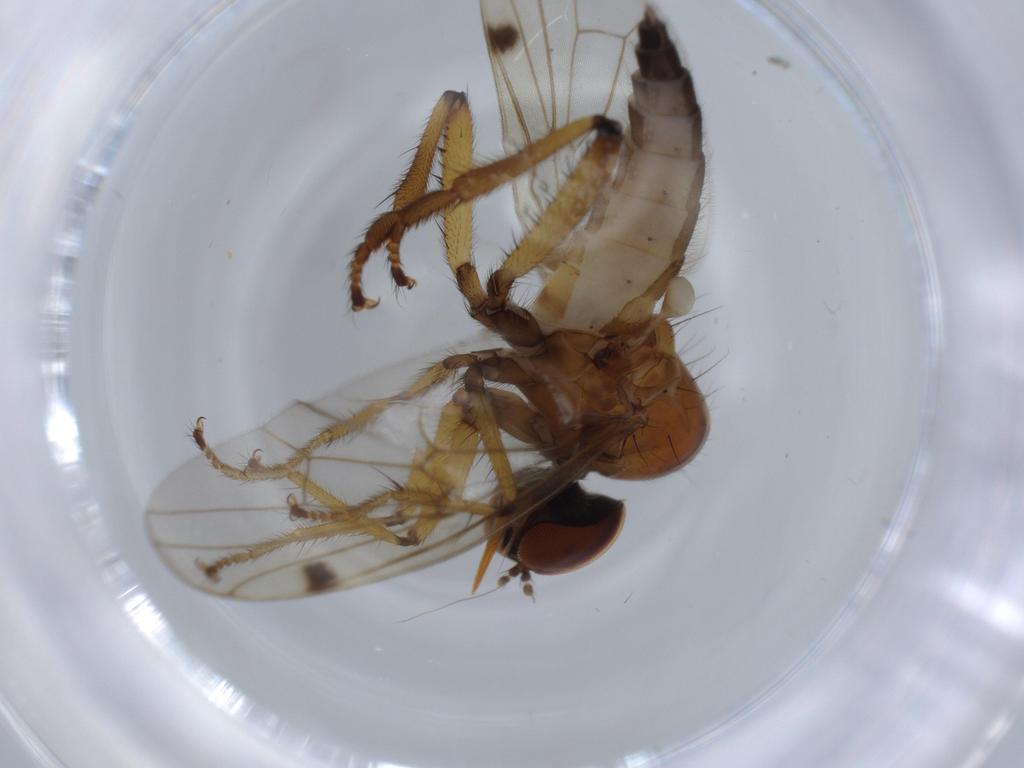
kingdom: Animalia
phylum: Arthropoda
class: Insecta
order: Diptera
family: Hybotidae
